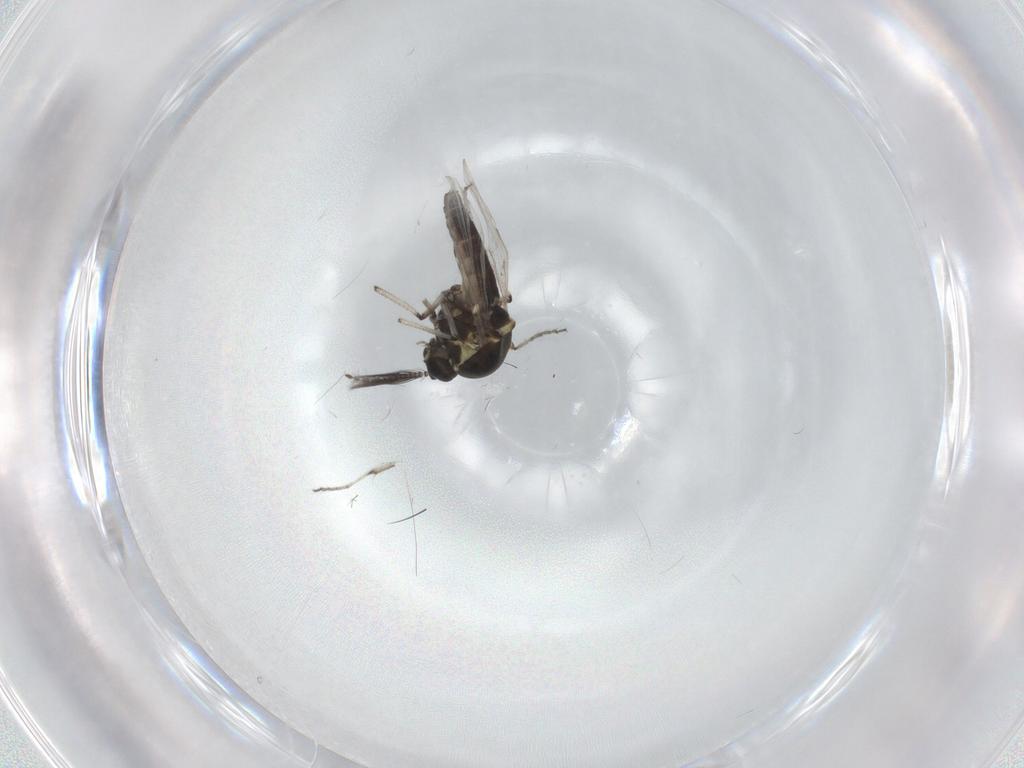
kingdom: Animalia
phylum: Arthropoda
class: Insecta
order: Diptera
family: Ceratopogonidae
